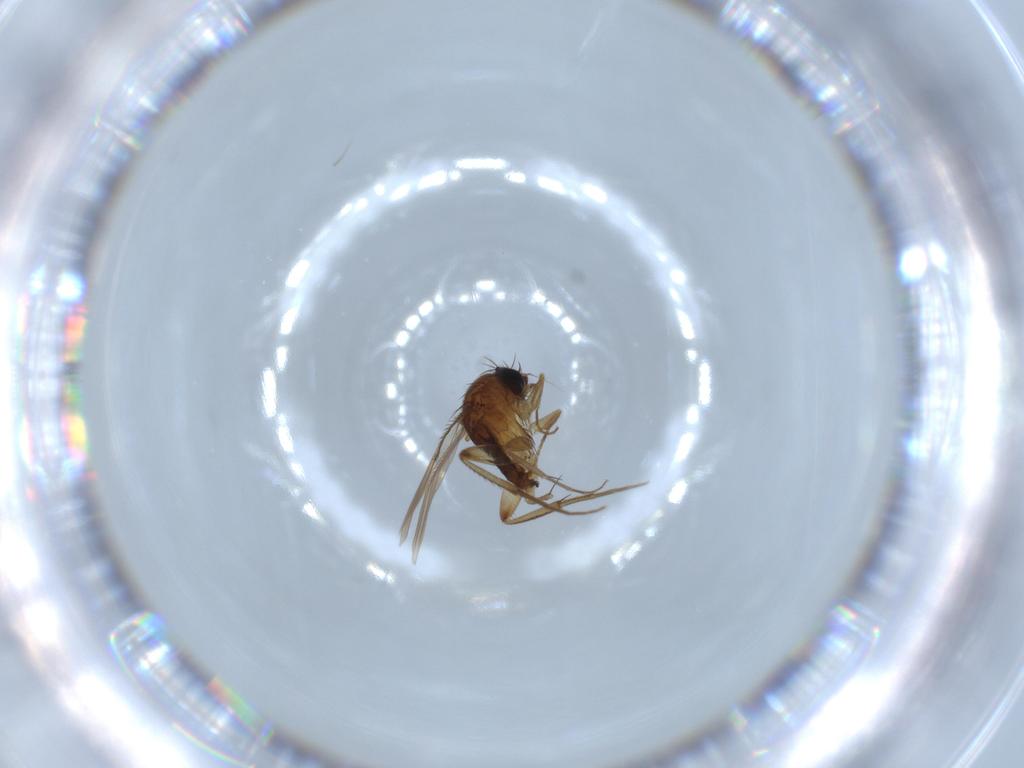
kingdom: Animalia
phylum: Arthropoda
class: Insecta
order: Diptera
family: Phoridae
